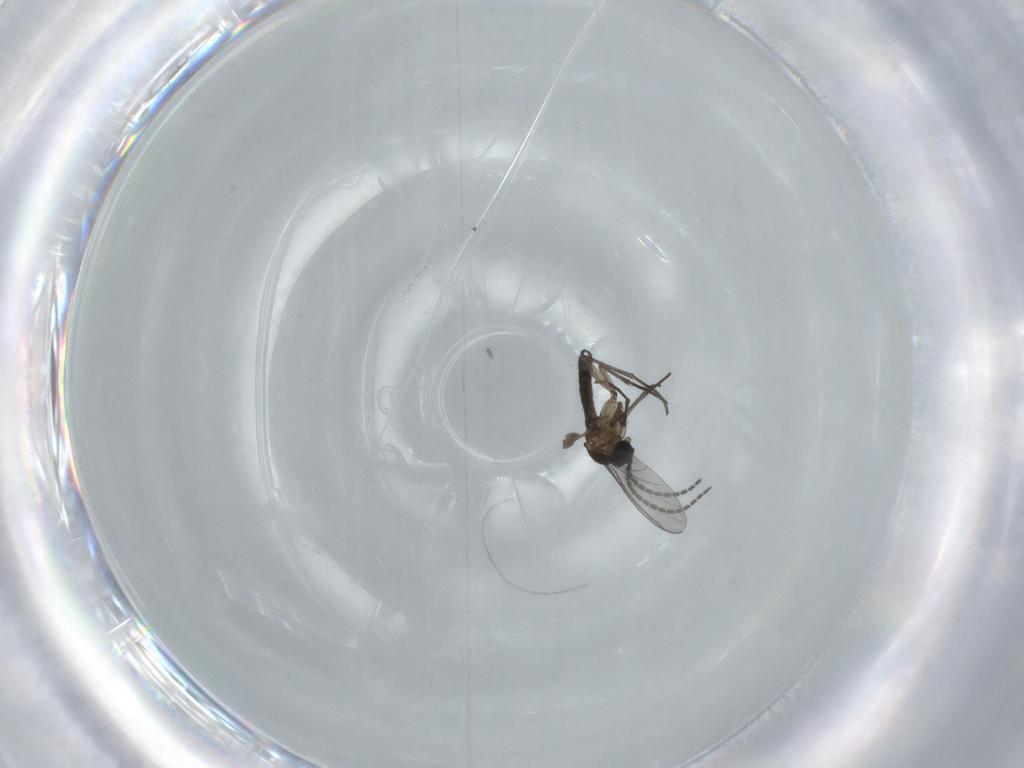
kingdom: Animalia
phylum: Arthropoda
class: Insecta
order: Diptera
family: Sciaridae
